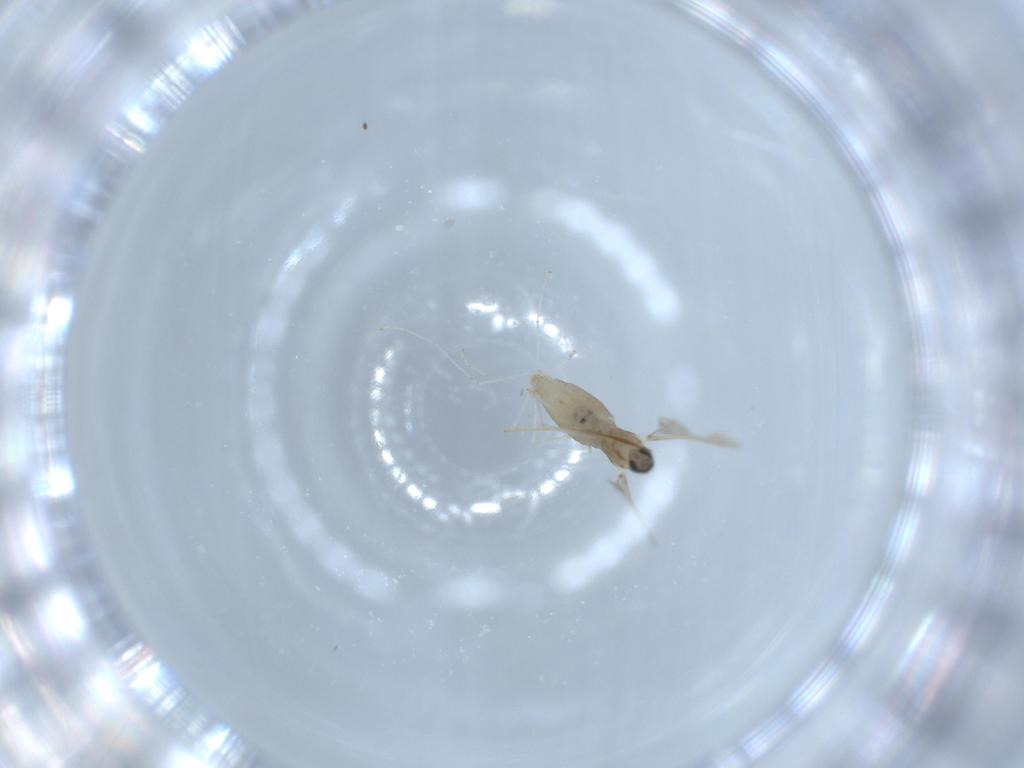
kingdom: Animalia
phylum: Arthropoda
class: Insecta
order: Diptera
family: Cecidomyiidae
